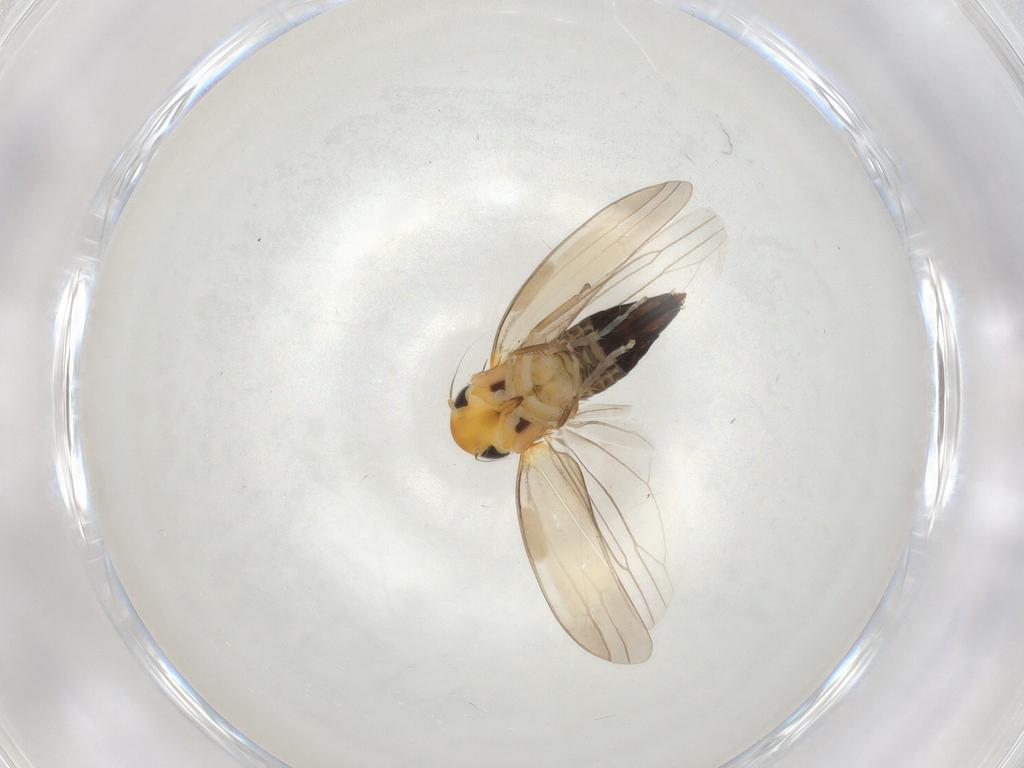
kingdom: Animalia
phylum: Arthropoda
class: Insecta
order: Hemiptera
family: Cicadellidae
